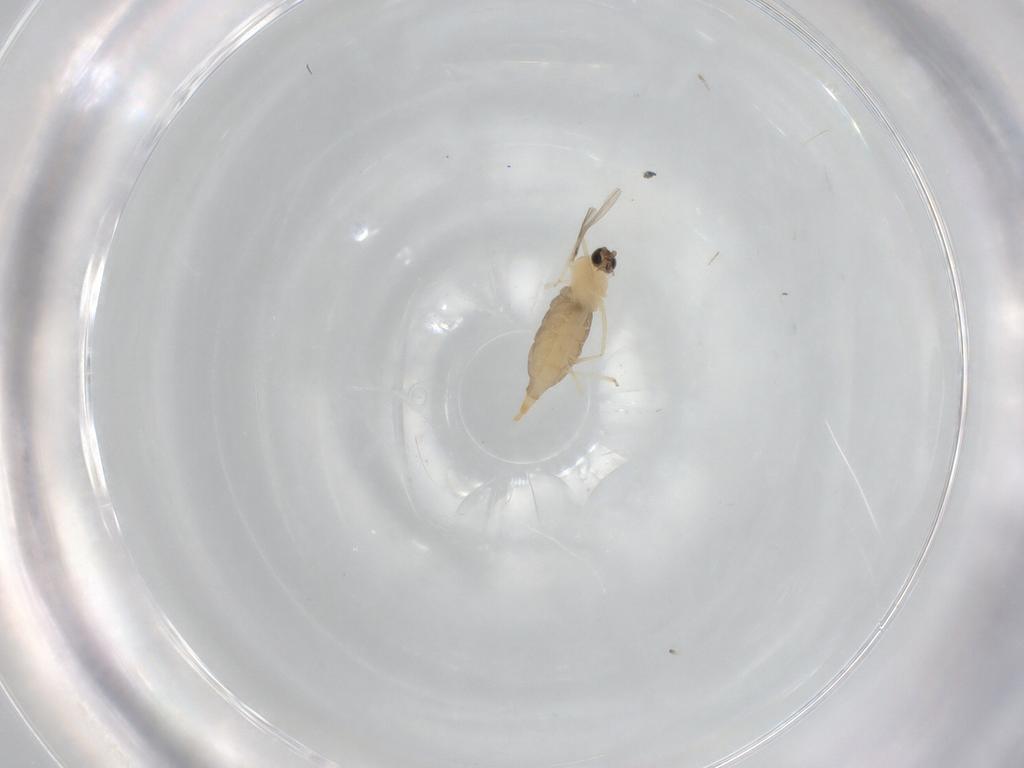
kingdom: Animalia
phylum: Arthropoda
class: Insecta
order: Diptera
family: Chironomidae
